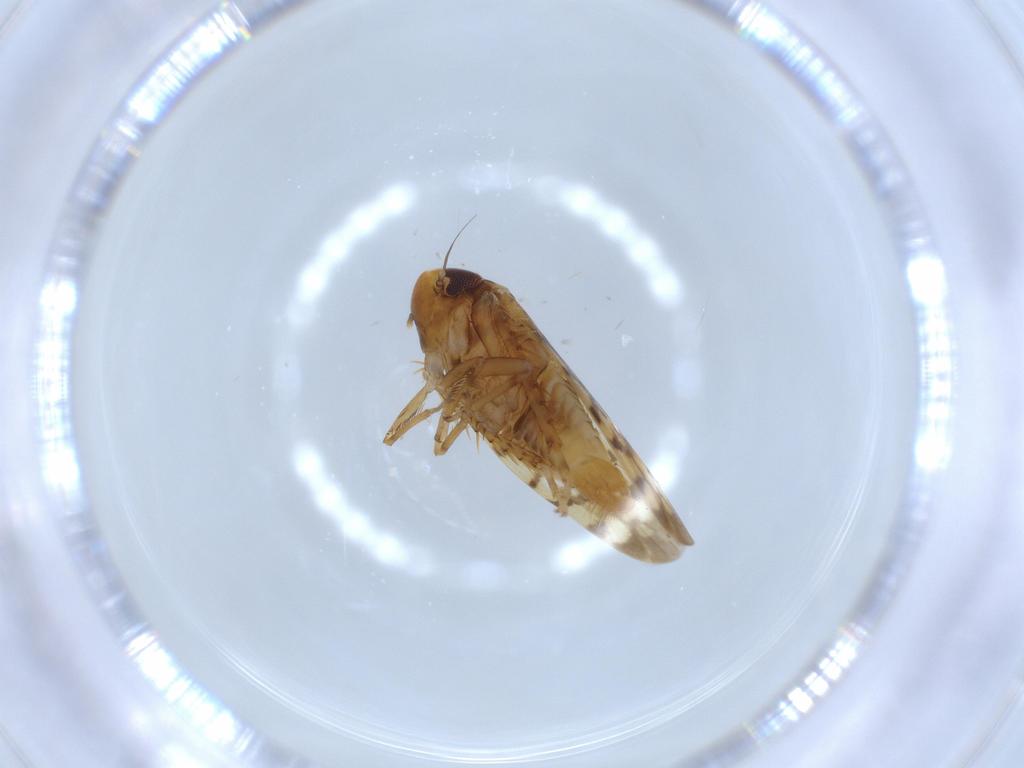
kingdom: Animalia
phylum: Arthropoda
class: Insecta
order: Hemiptera
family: Cicadellidae
